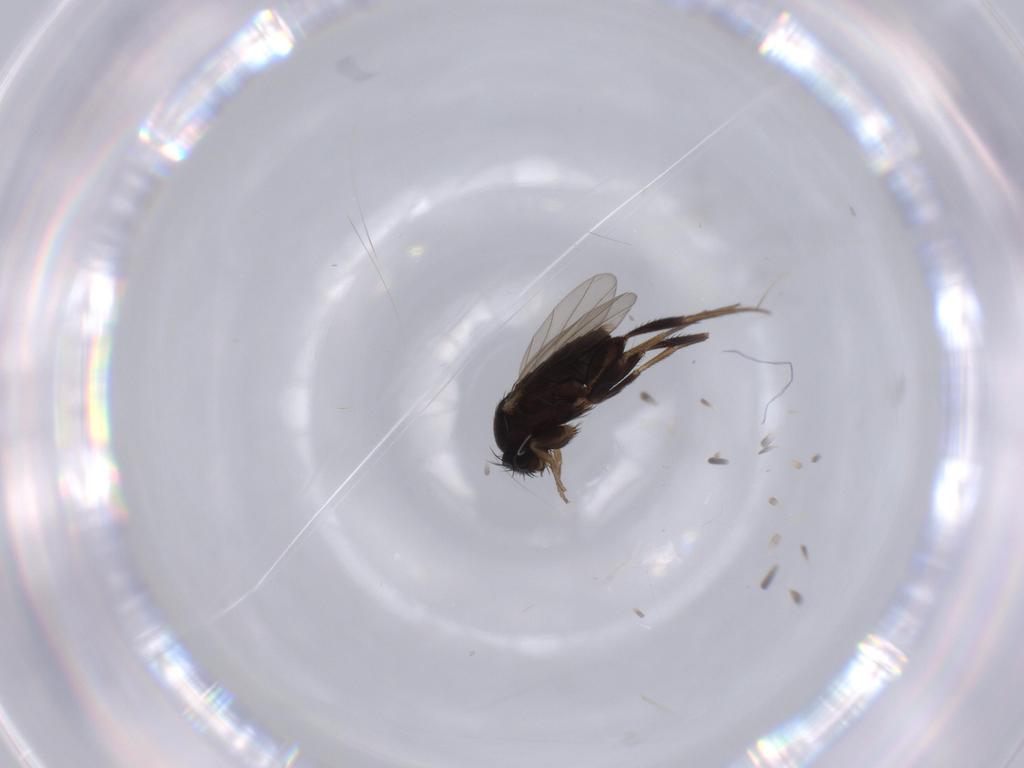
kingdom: Animalia
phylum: Arthropoda
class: Insecta
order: Diptera
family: Phoridae
